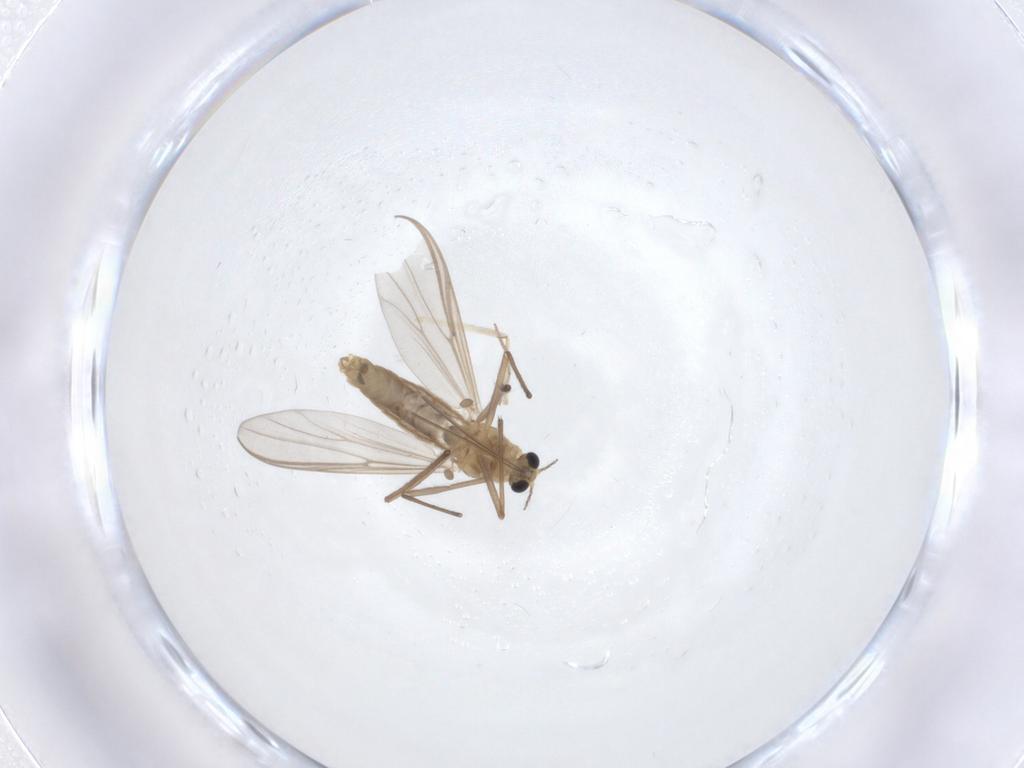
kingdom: Animalia
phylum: Arthropoda
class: Insecta
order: Diptera
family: Chironomidae
